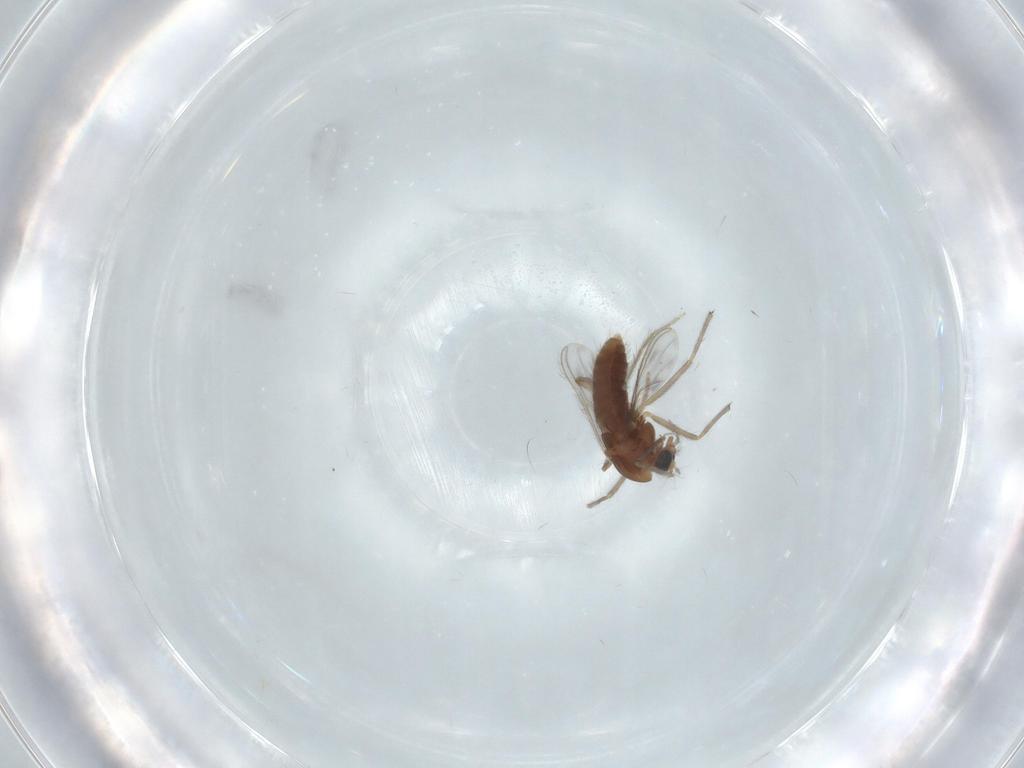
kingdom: Animalia
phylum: Arthropoda
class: Insecta
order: Diptera
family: Chironomidae
